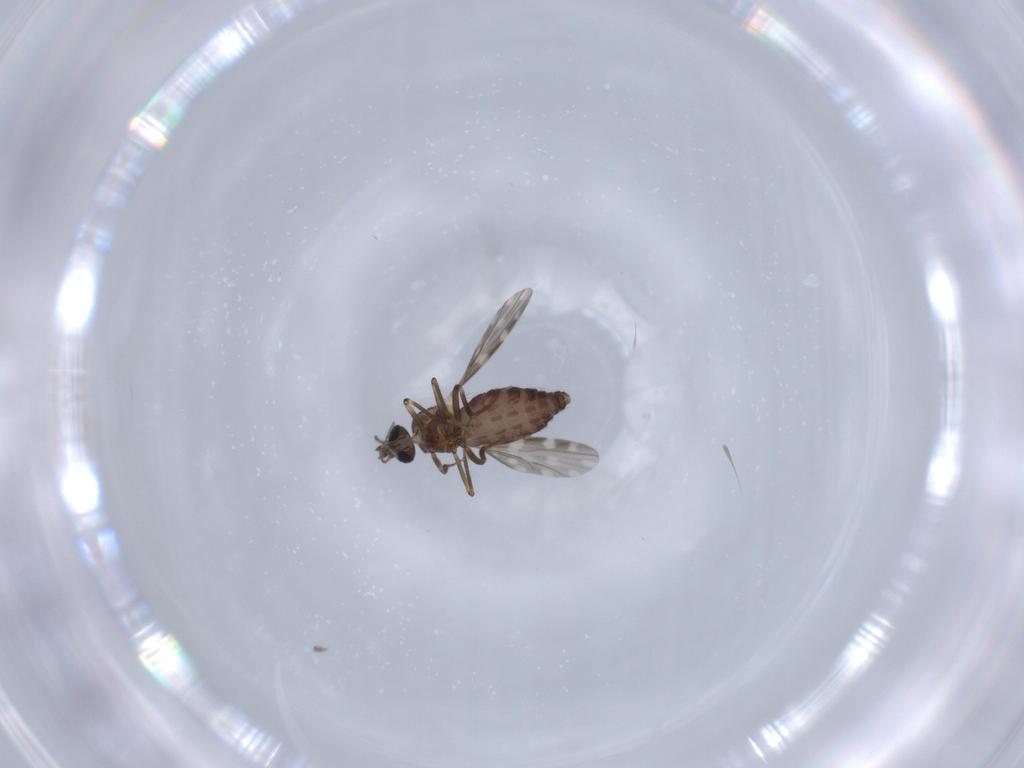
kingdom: Animalia
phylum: Arthropoda
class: Insecta
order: Diptera
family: Ceratopogonidae
